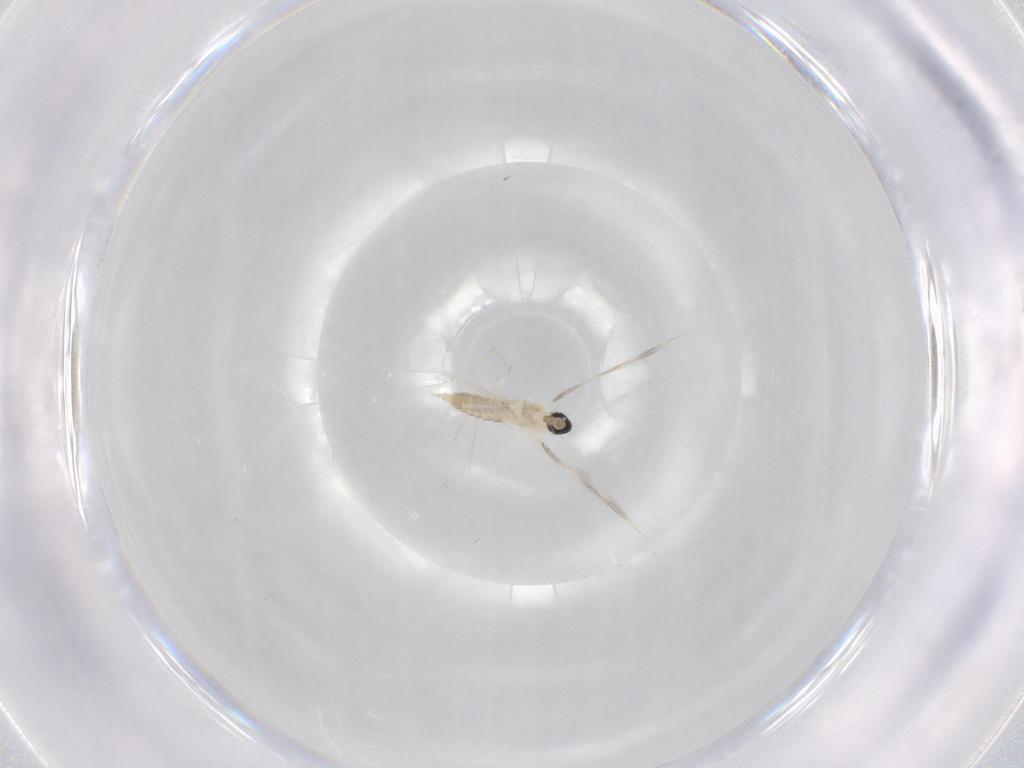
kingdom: Animalia
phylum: Arthropoda
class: Insecta
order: Diptera
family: Cecidomyiidae
